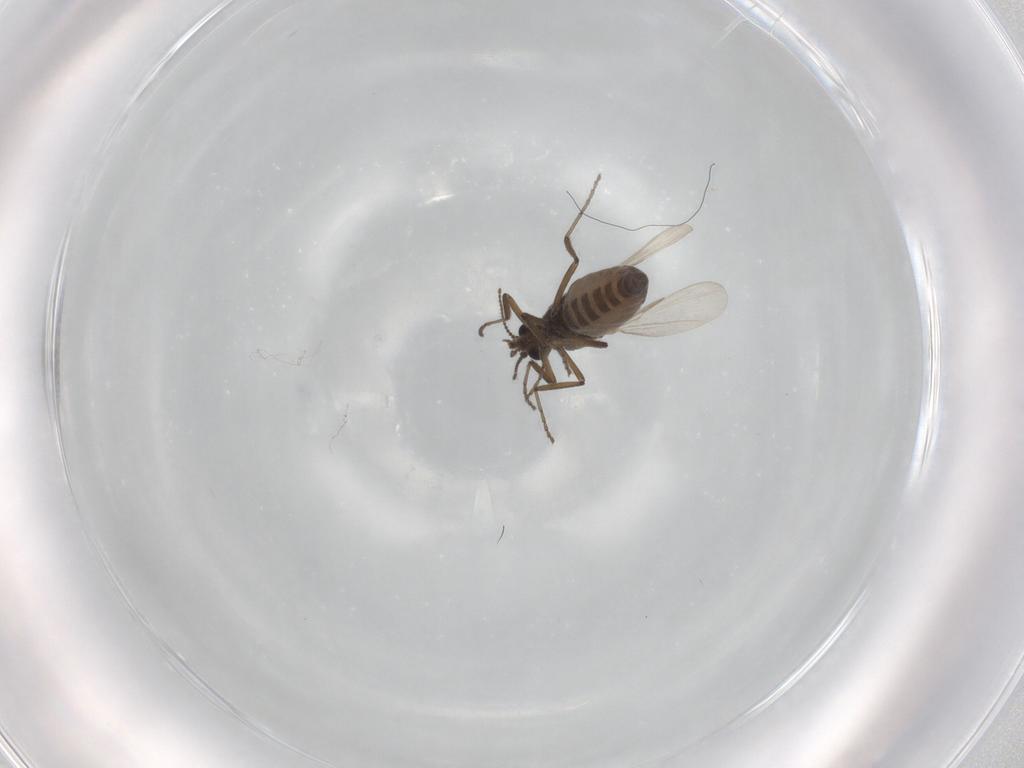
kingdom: Animalia
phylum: Arthropoda
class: Insecta
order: Diptera
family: Ceratopogonidae
